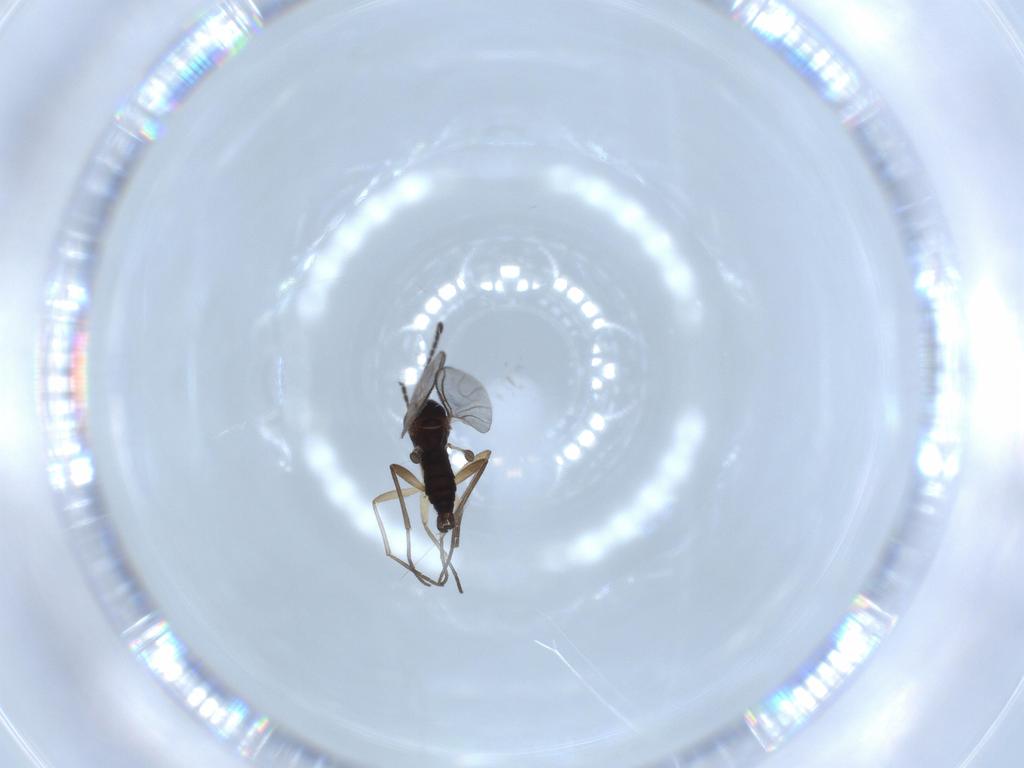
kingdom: Animalia
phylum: Arthropoda
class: Insecta
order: Diptera
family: Sciaridae
